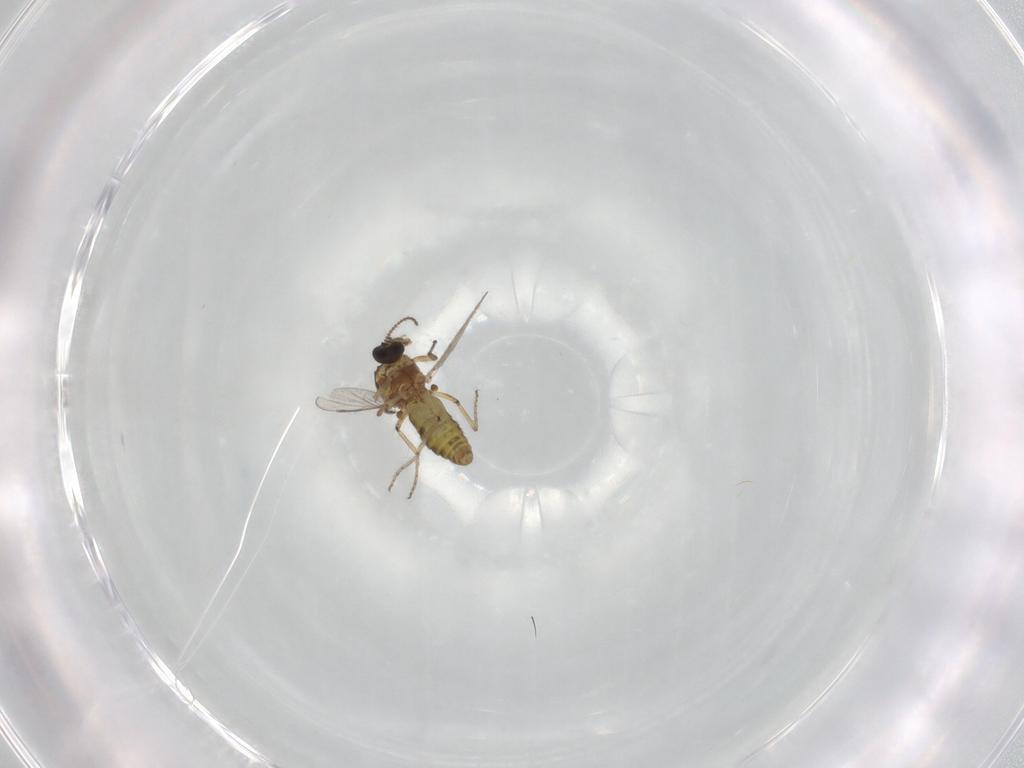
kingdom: Animalia
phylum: Arthropoda
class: Insecta
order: Diptera
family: Ceratopogonidae
